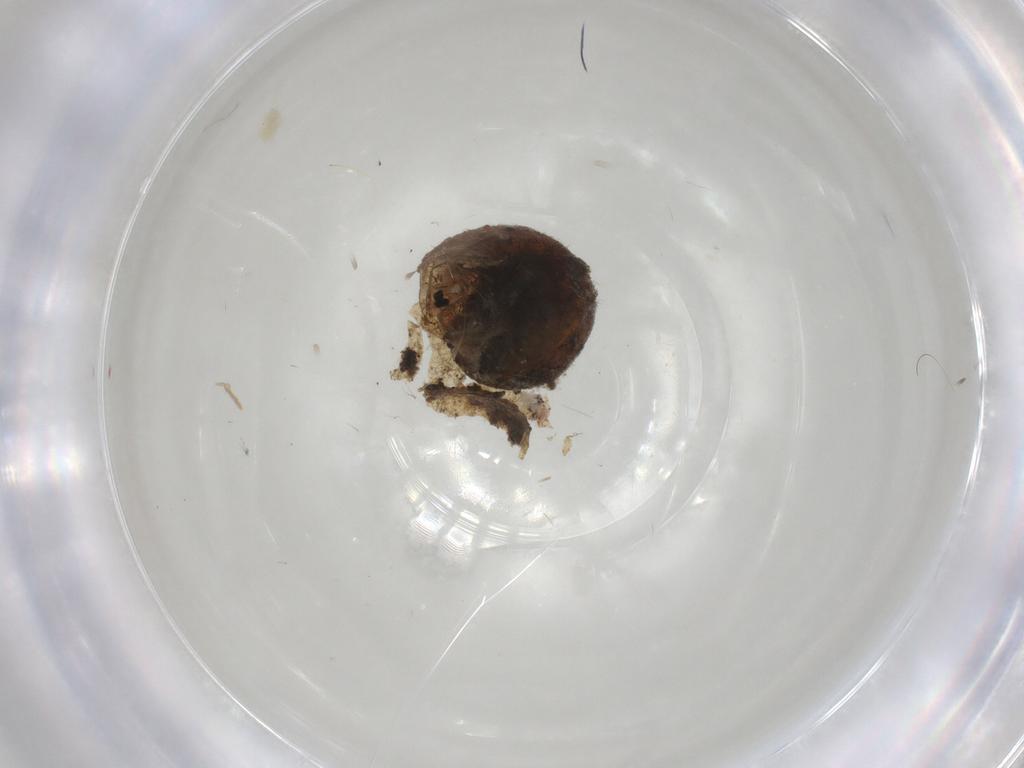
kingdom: Animalia
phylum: Arthropoda
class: Insecta
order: Diptera
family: Sciaridae
